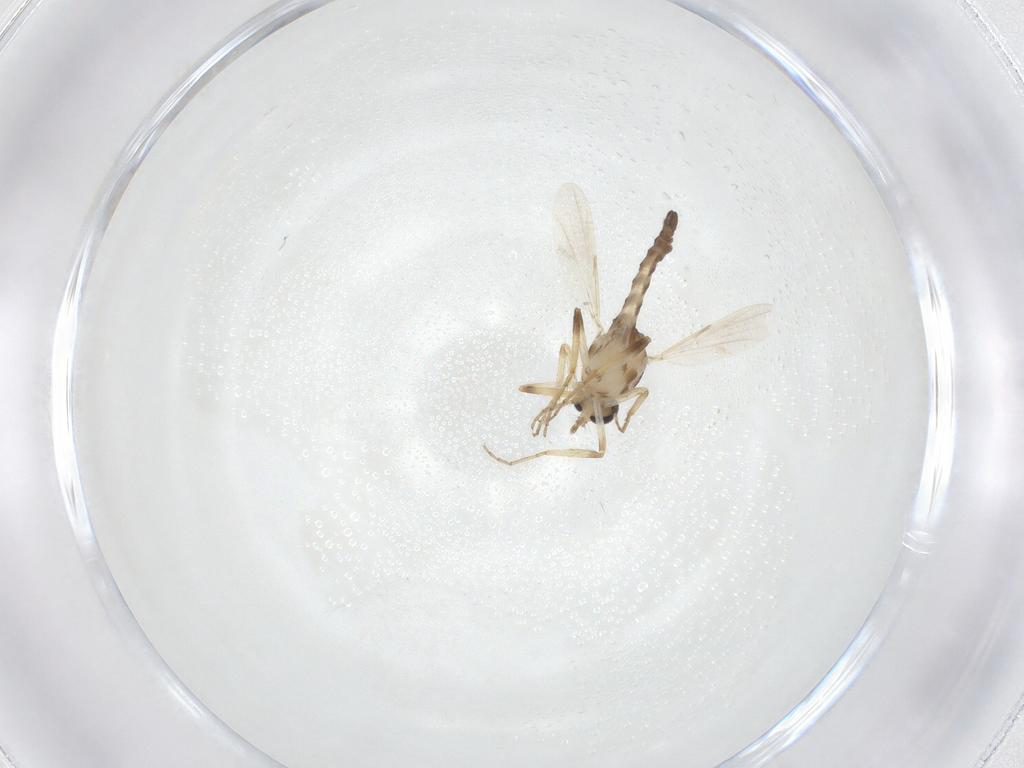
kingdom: Animalia
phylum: Arthropoda
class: Insecta
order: Diptera
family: Ceratopogonidae
